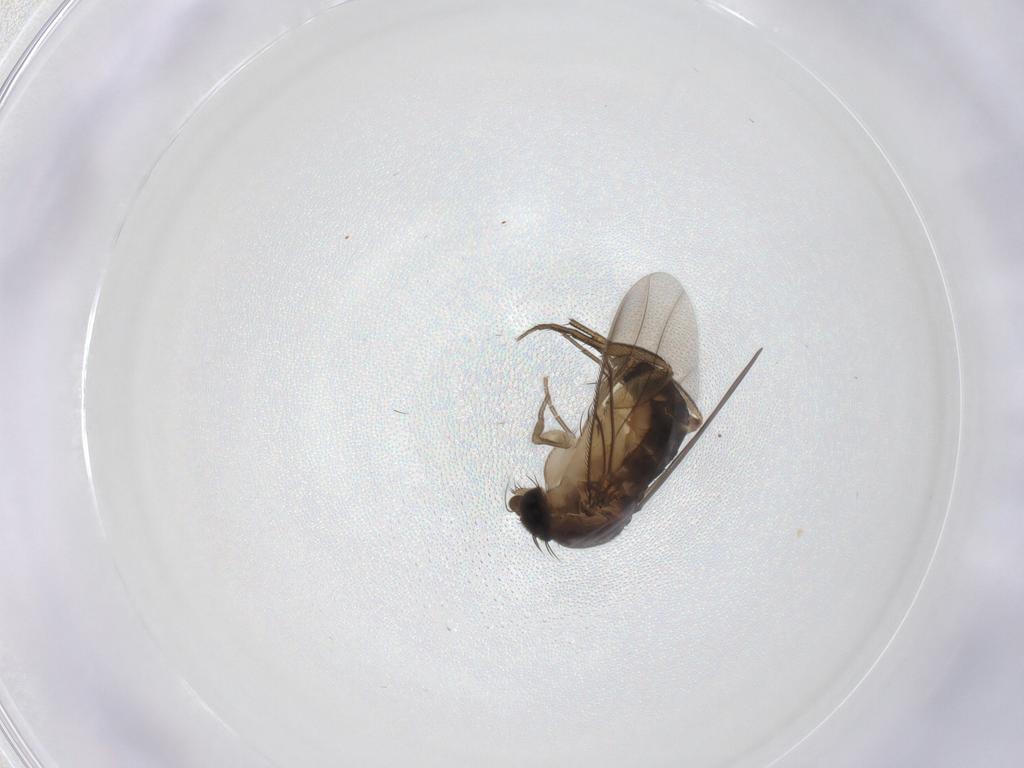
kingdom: Animalia
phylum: Arthropoda
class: Insecta
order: Diptera
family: Phoridae
